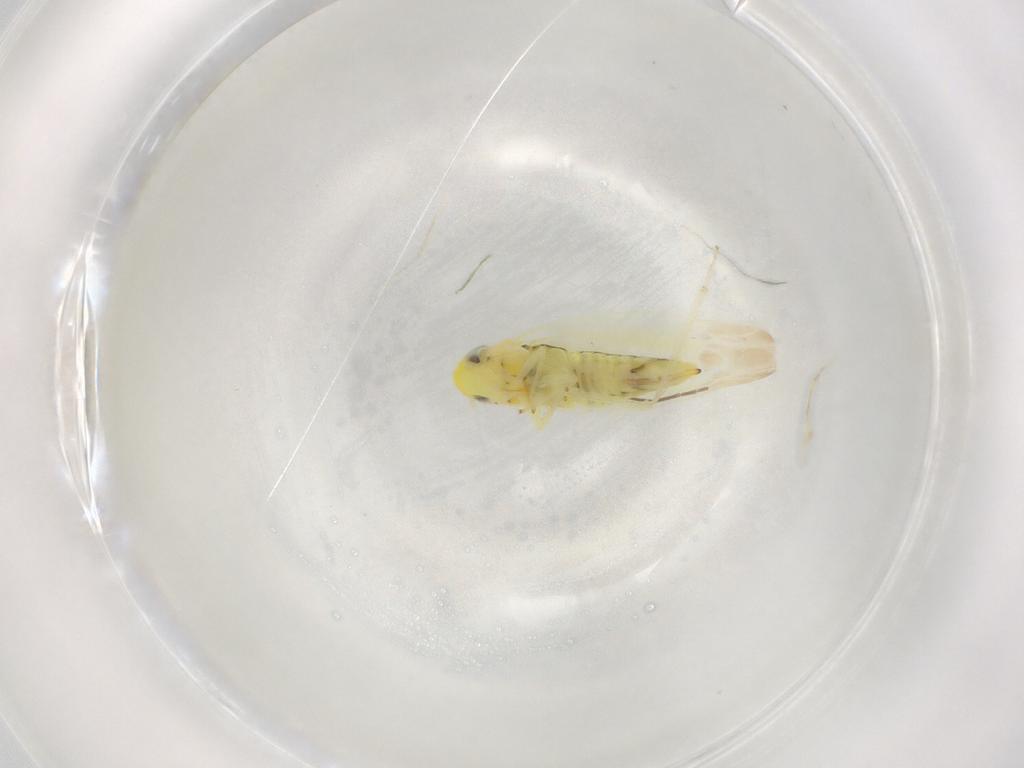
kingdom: Animalia
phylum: Arthropoda
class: Insecta
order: Hemiptera
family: Cicadellidae
